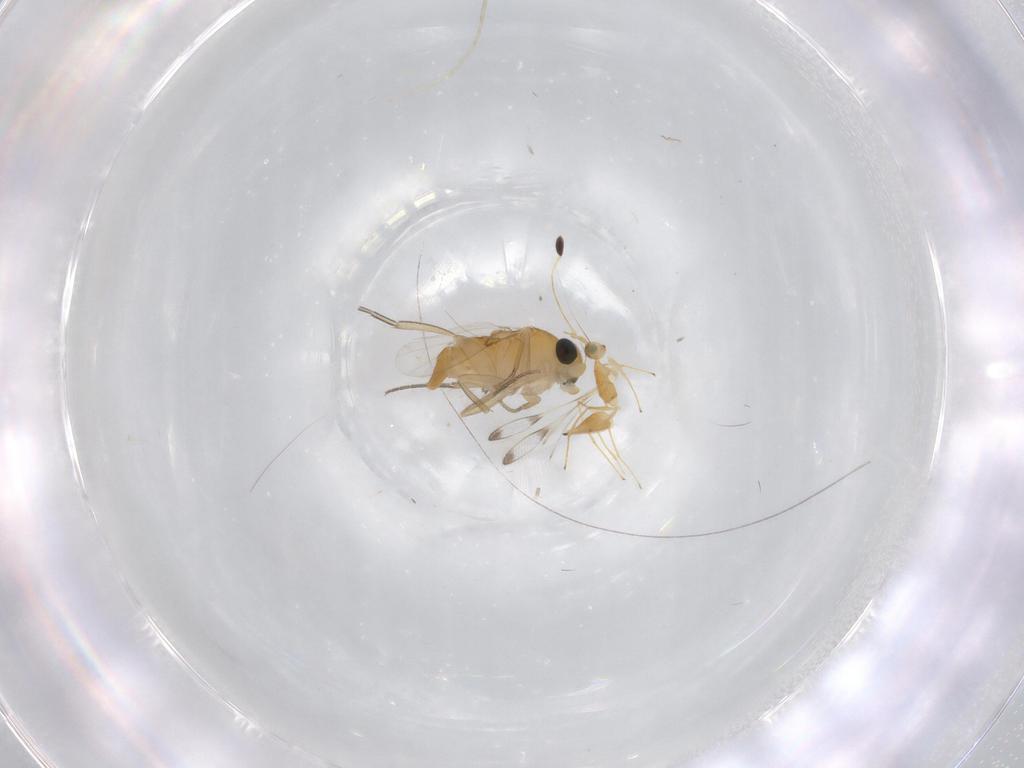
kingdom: Animalia
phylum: Arthropoda
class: Insecta
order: Diptera
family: Phoridae
